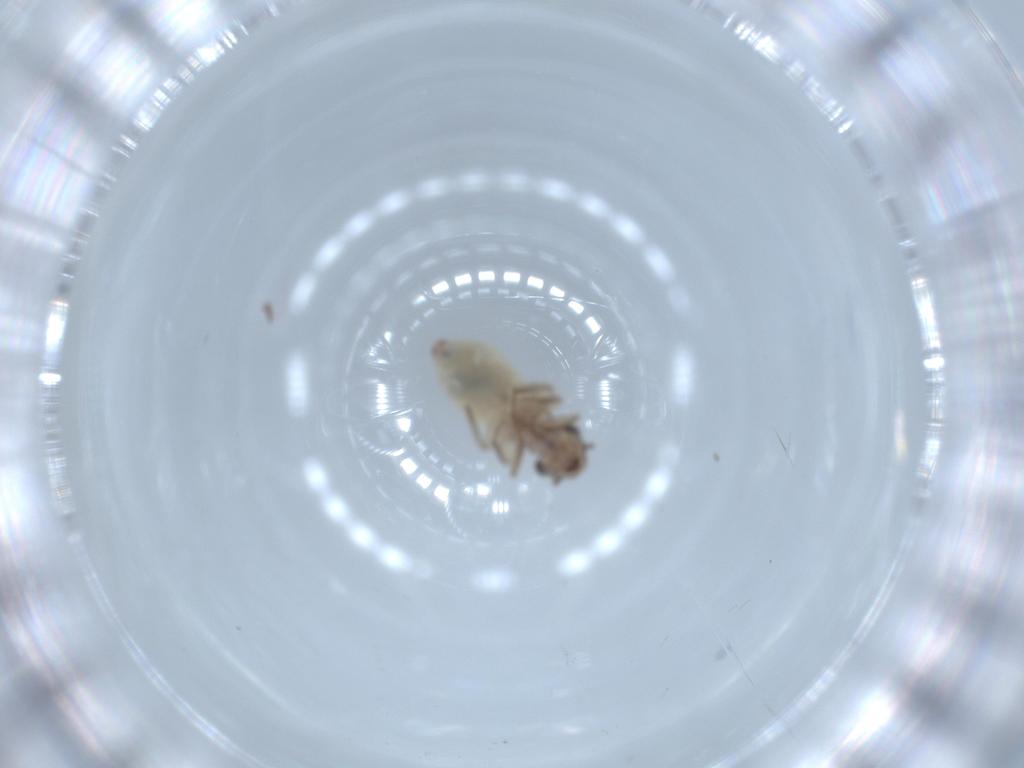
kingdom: Animalia
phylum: Arthropoda
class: Insecta
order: Psocodea
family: Lepidopsocidae
